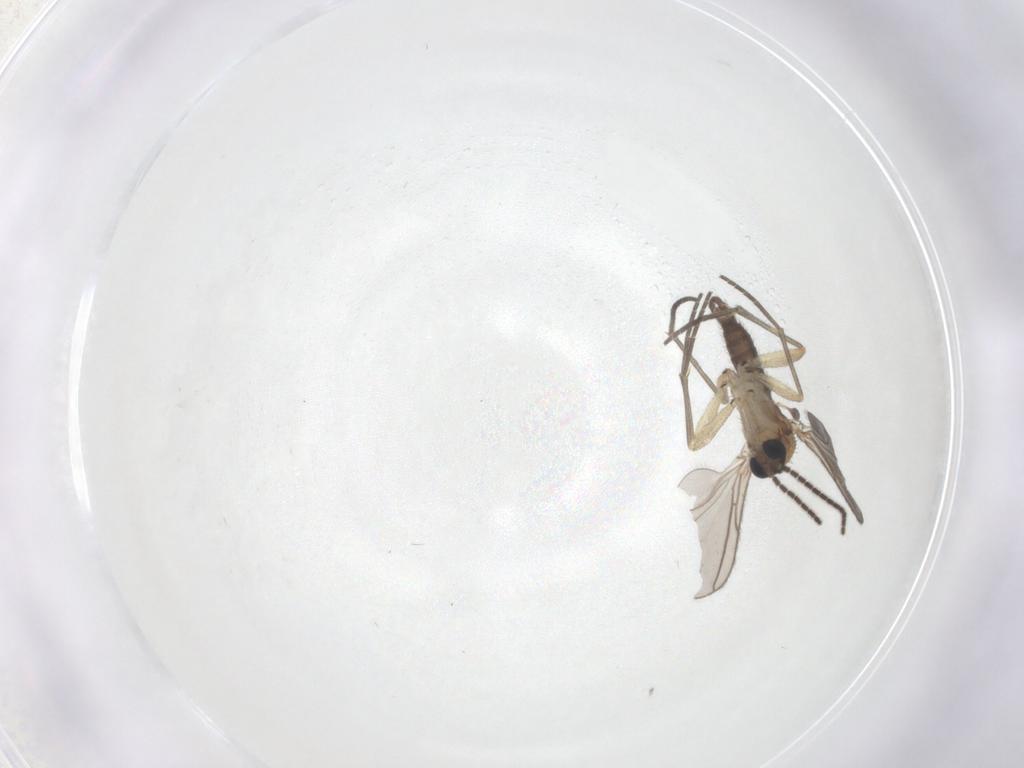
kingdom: Animalia
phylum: Arthropoda
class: Insecta
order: Diptera
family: Sciaridae
